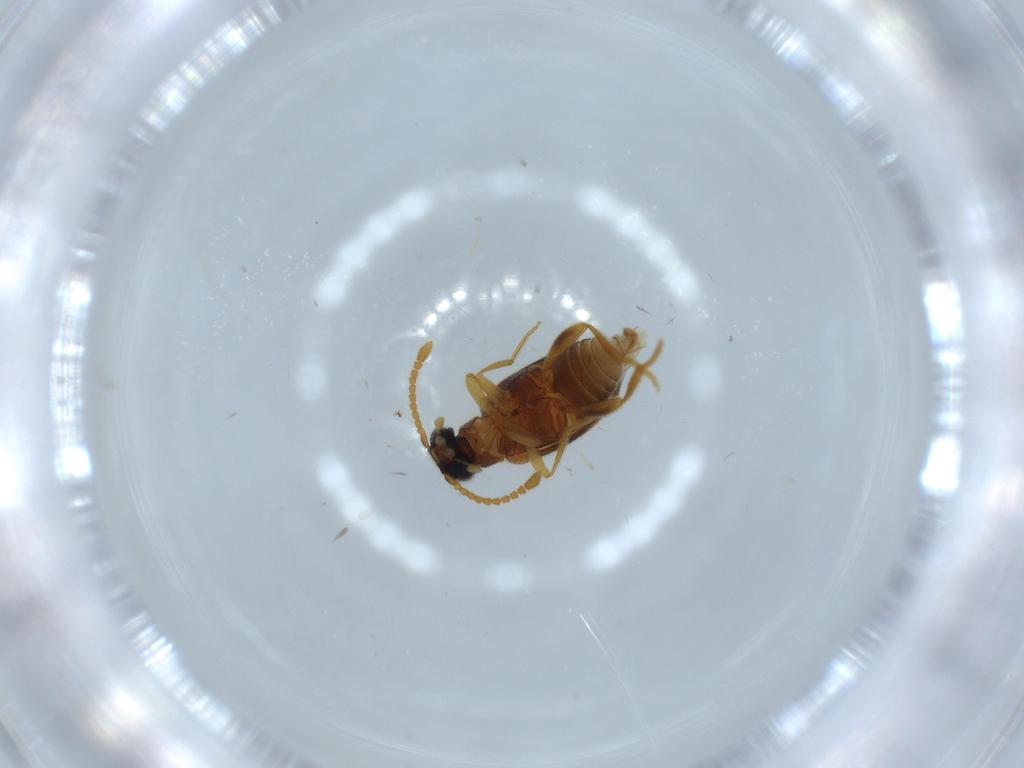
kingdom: Animalia
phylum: Arthropoda
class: Insecta
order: Coleoptera
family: Aderidae
